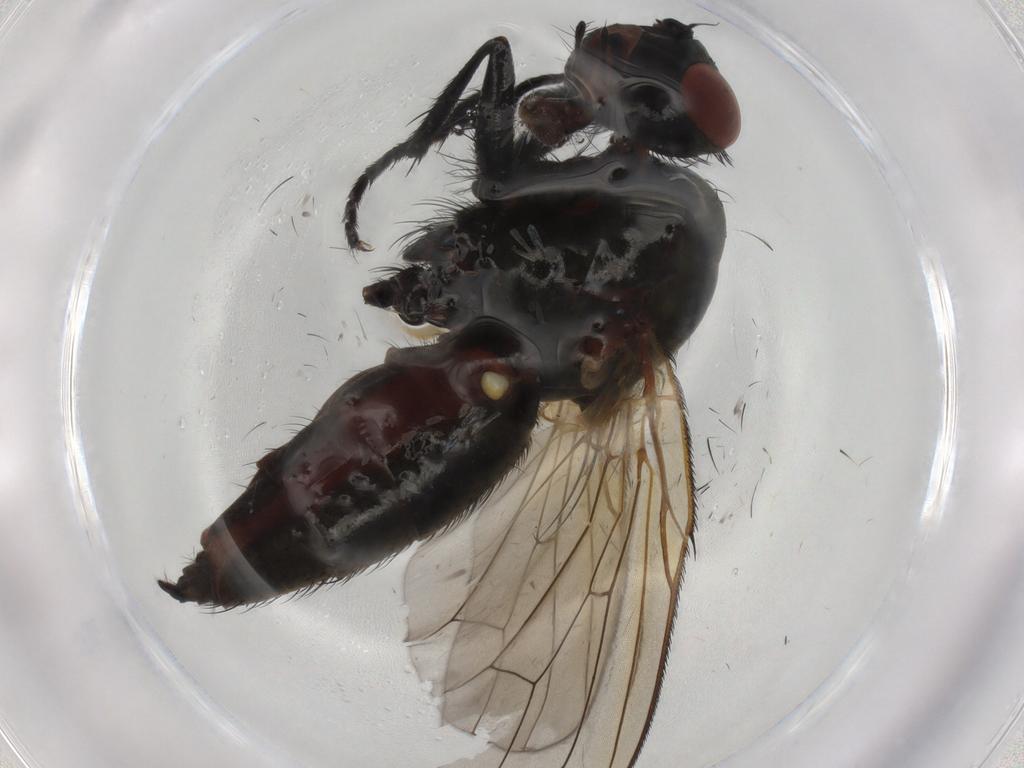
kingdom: Animalia
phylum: Arthropoda
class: Insecta
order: Diptera
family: Anthomyiidae
